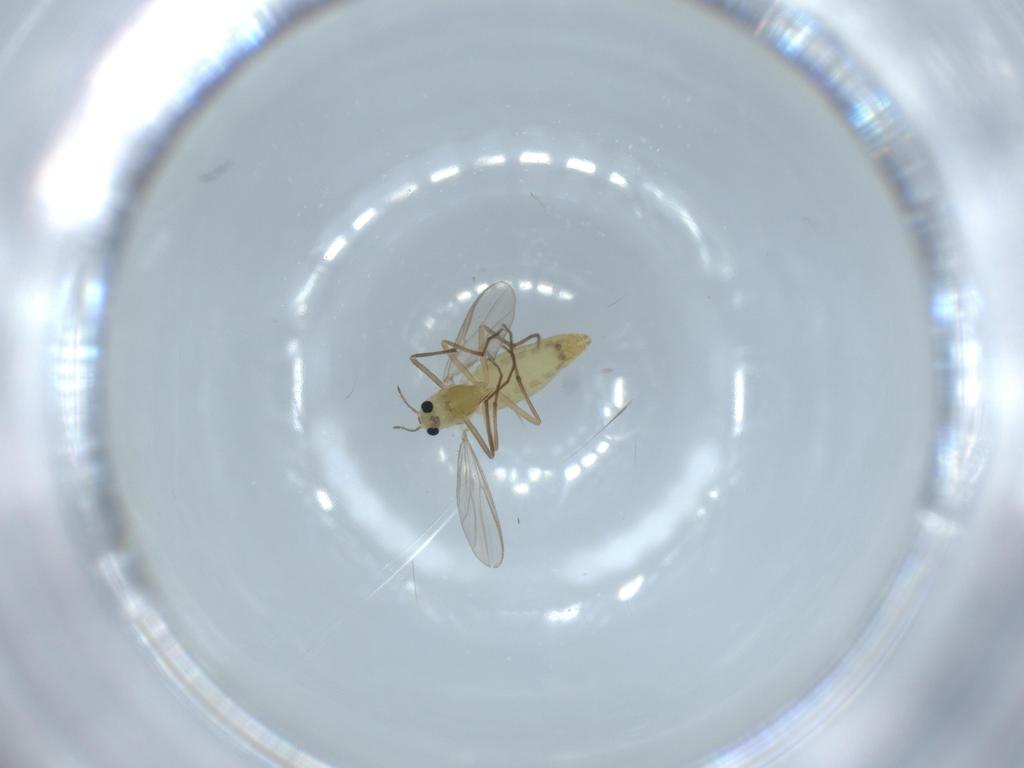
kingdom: Animalia
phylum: Arthropoda
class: Insecta
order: Diptera
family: Chironomidae
